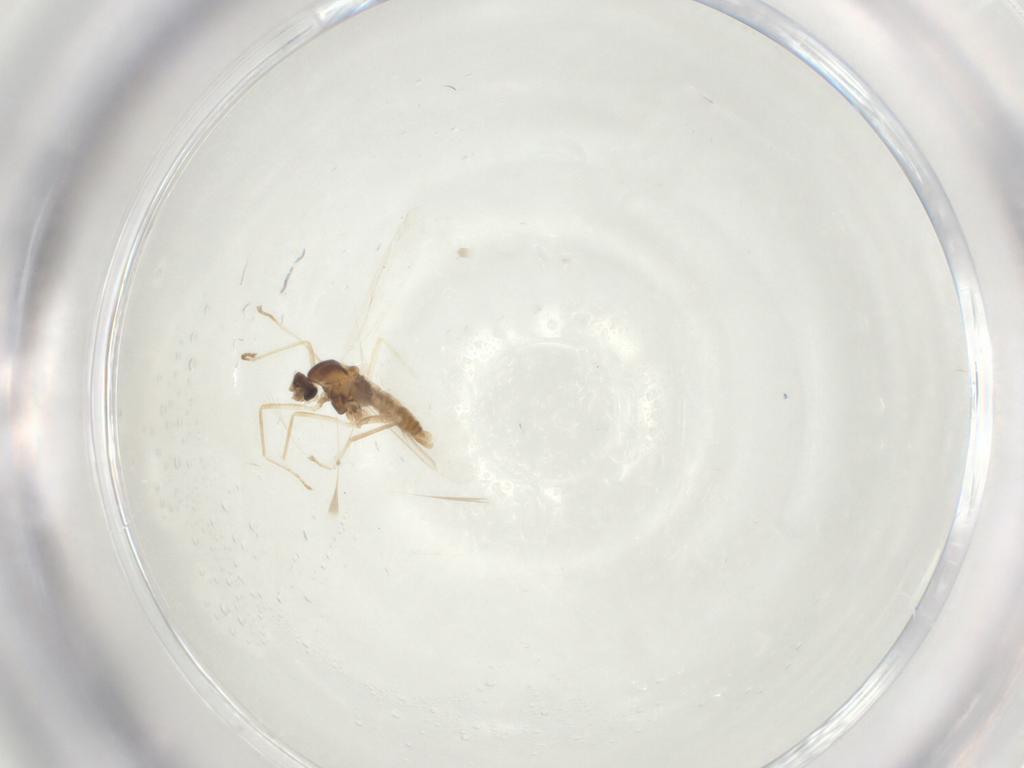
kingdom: Animalia
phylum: Arthropoda
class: Insecta
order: Diptera
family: Cecidomyiidae
